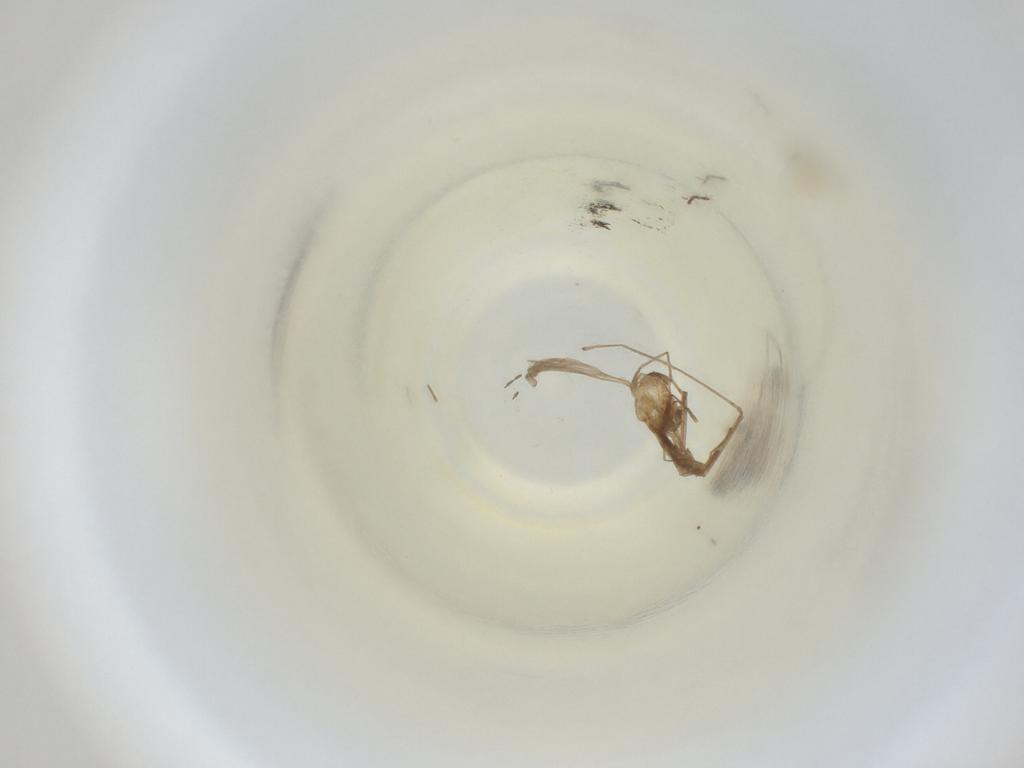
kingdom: Animalia
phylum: Arthropoda
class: Insecta
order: Diptera
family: Cecidomyiidae
